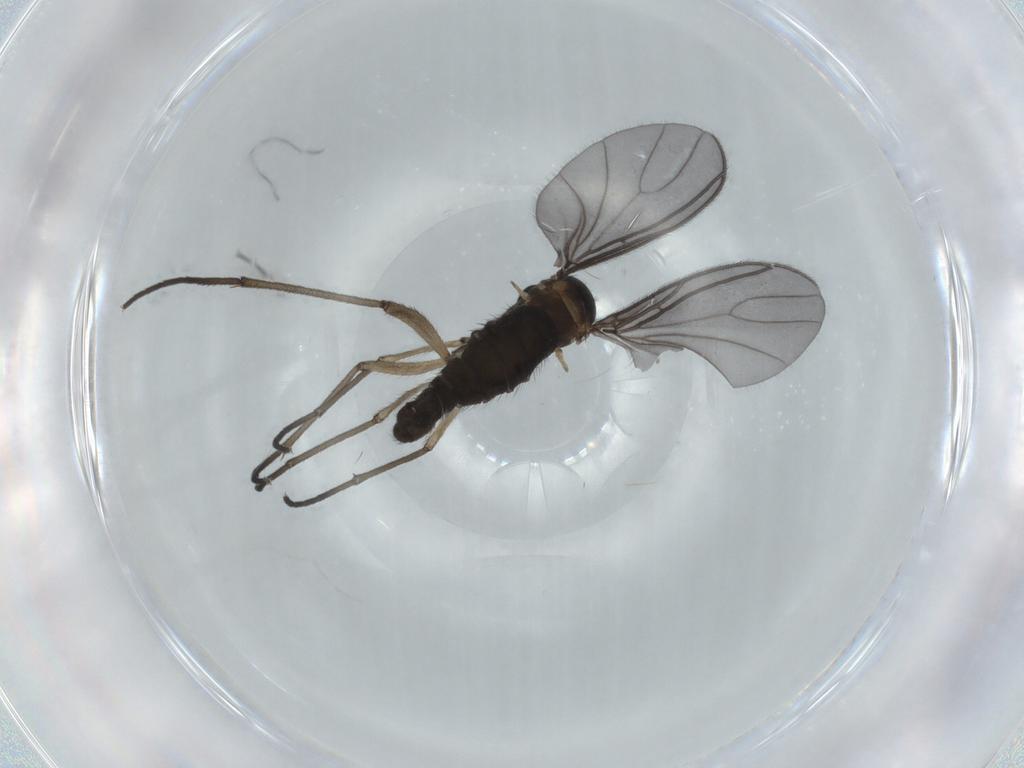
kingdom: Animalia
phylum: Arthropoda
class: Insecta
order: Diptera
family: Sciaridae
